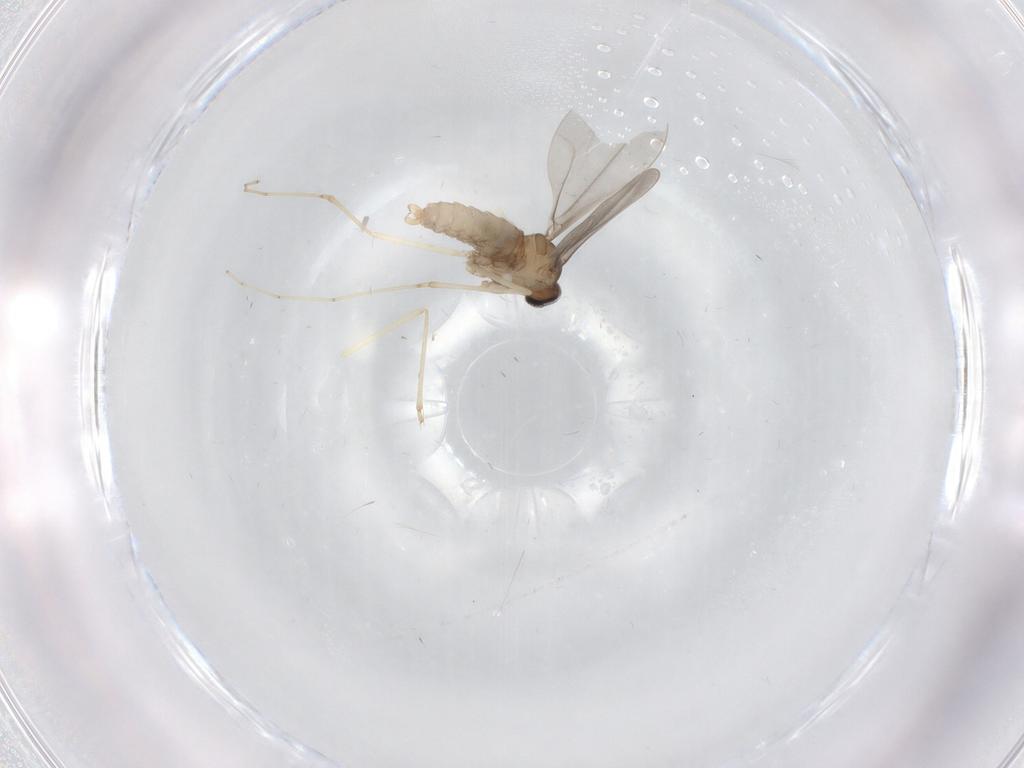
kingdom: Animalia
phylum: Arthropoda
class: Insecta
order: Diptera
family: Cecidomyiidae
